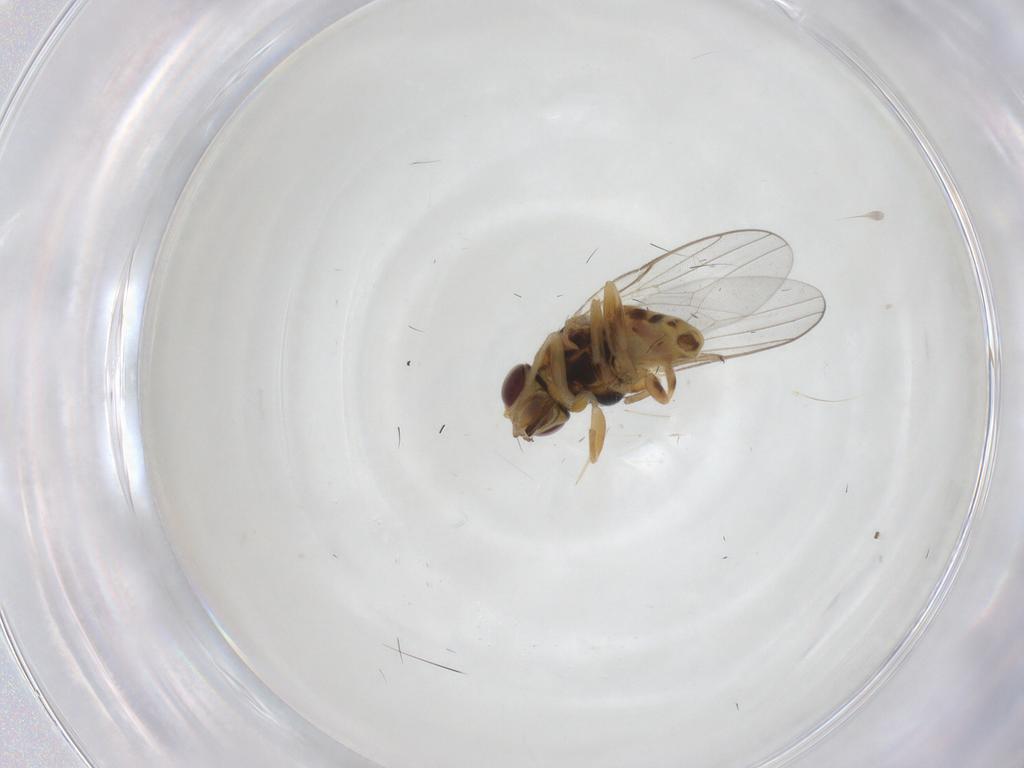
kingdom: Animalia
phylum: Arthropoda
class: Insecta
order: Diptera
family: Chloropidae
